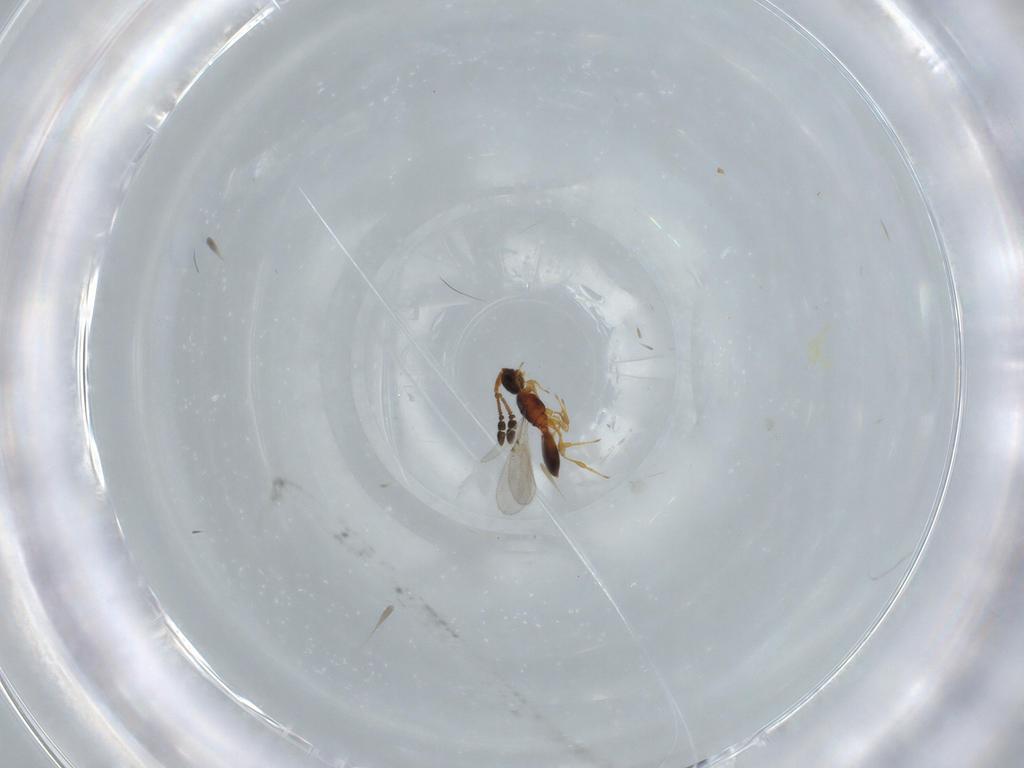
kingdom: Animalia
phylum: Arthropoda
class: Insecta
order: Hymenoptera
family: Diapriidae
